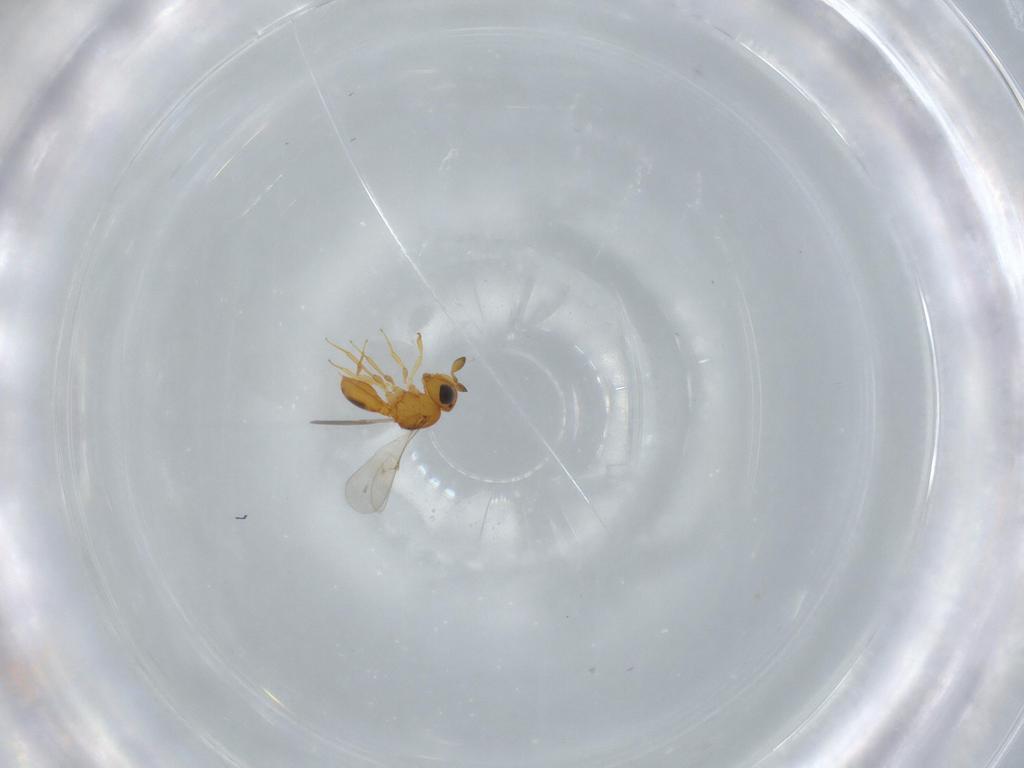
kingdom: Animalia
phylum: Arthropoda
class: Insecta
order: Hymenoptera
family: Scelionidae
